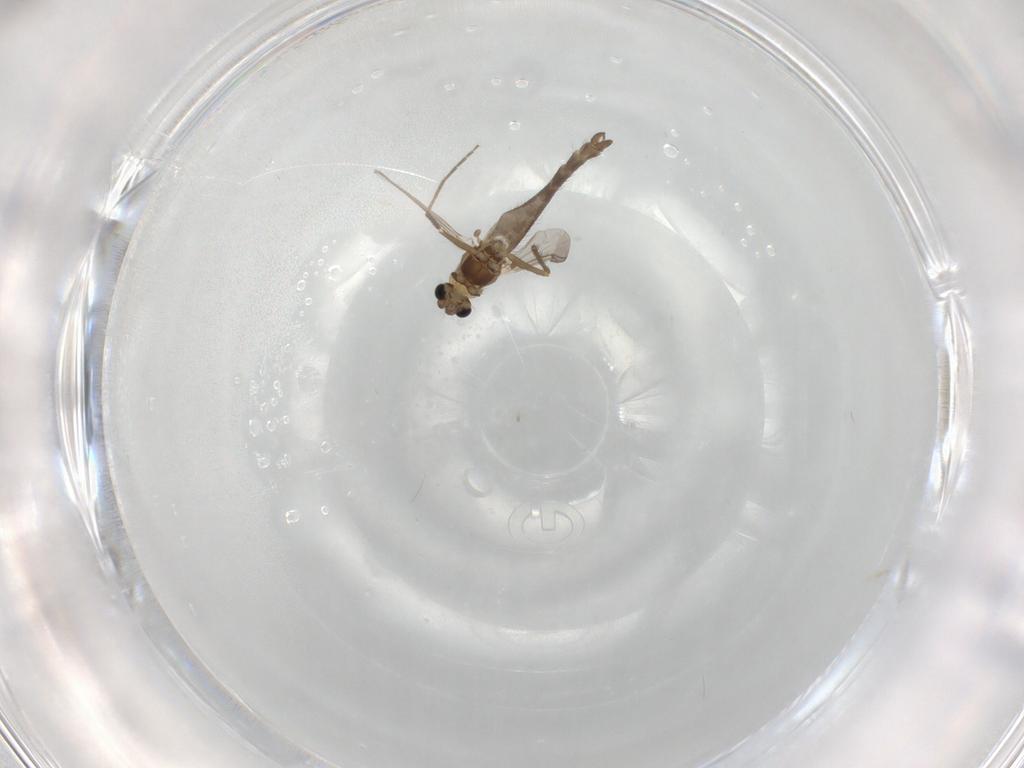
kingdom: Animalia
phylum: Arthropoda
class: Insecta
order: Diptera
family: Chironomidae
